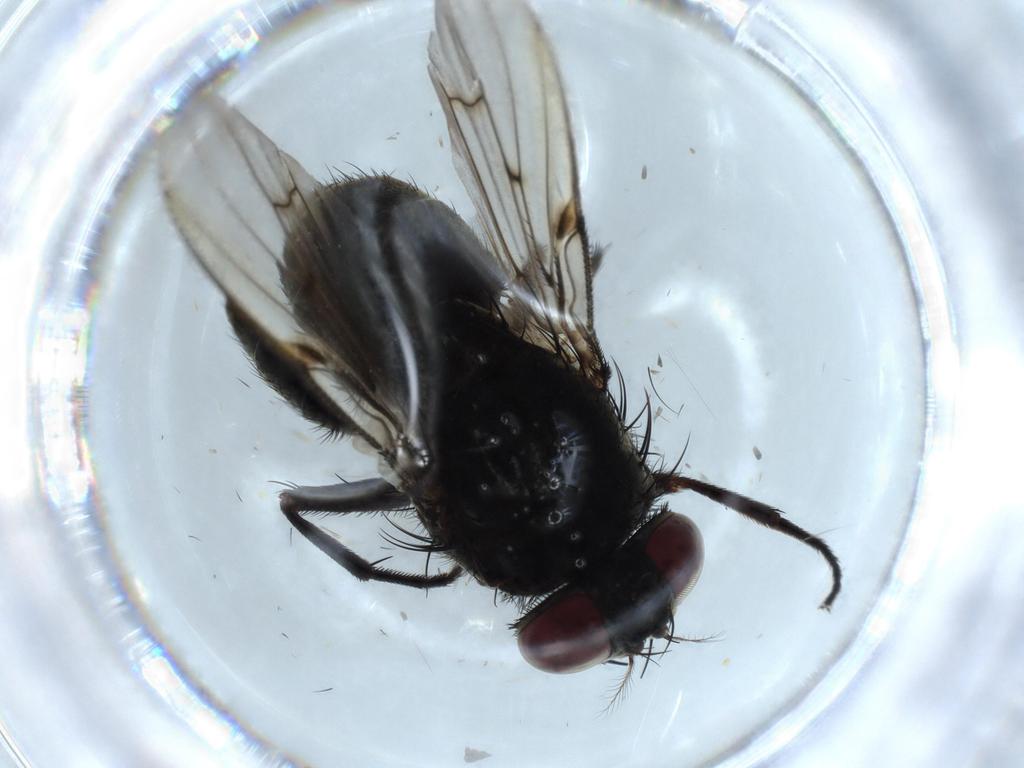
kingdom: Animalia
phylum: Arthropoda
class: Insecta
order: Diptera
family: Muscidae
